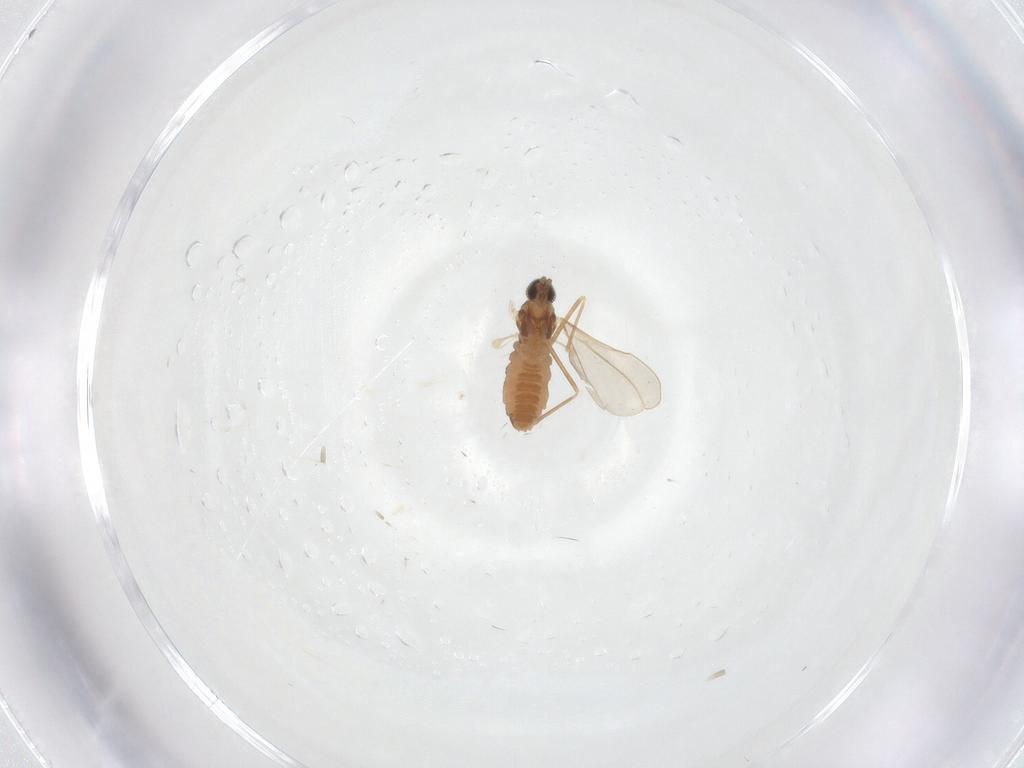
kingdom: Animalia
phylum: Arthropoda
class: Insecta
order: Diptera
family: Cecidomyiidae
